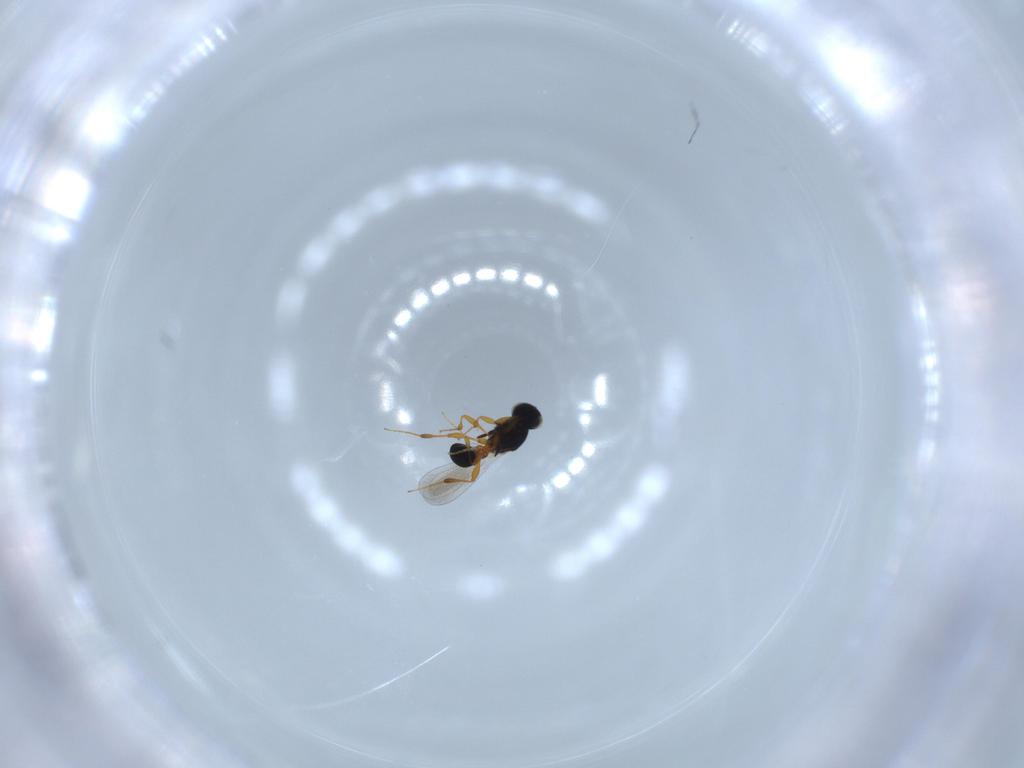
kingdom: Animalia
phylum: Arthropoda
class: Insecta
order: Hymenoptera
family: Platygastridae
